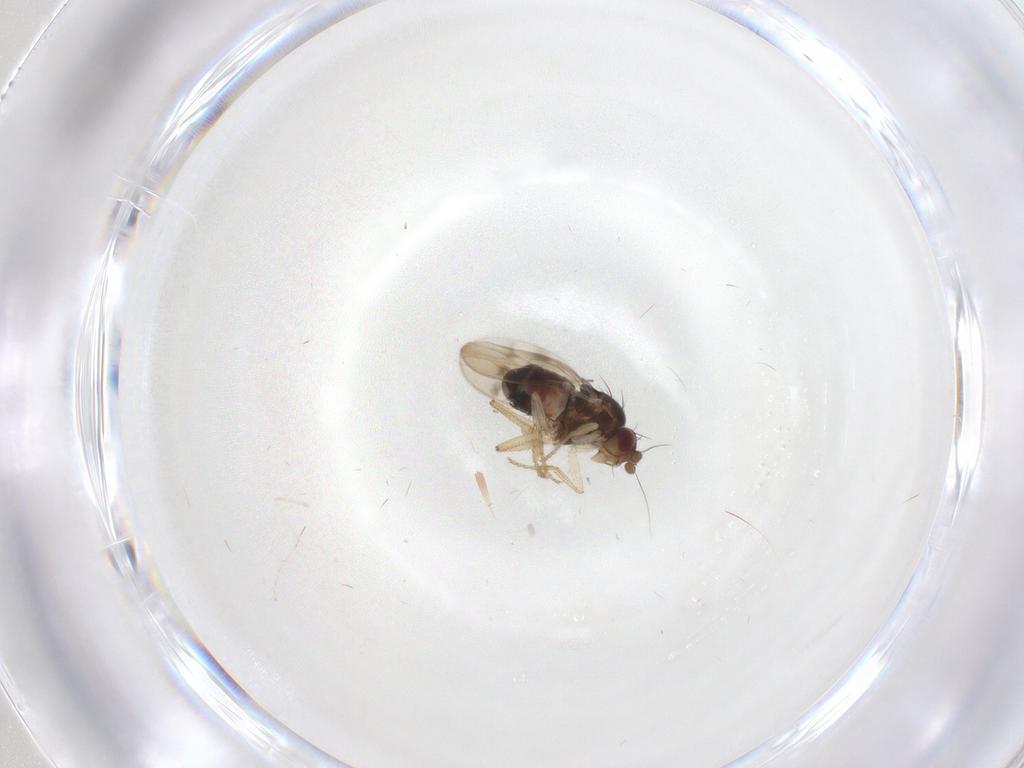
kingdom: Animalia
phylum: Arthropoda
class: Insecta
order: Diptera
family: Sphaeroceridae
